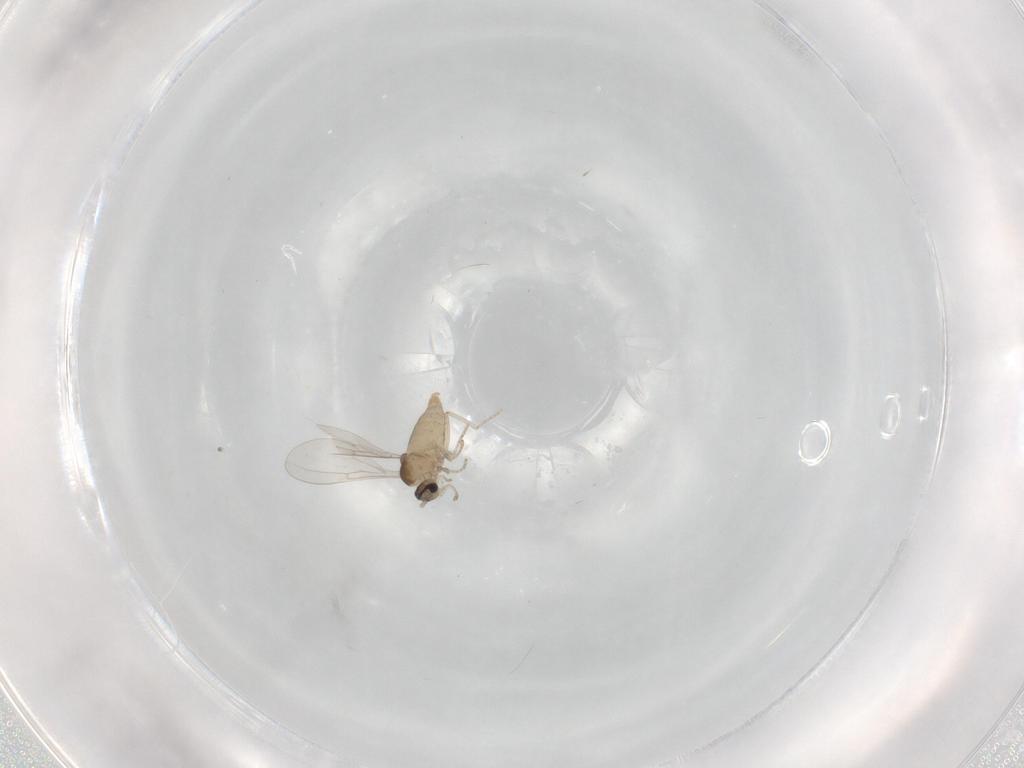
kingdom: Animalia
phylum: Arthropoda
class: Insecta
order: Diptera
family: Cecidomyiidae
